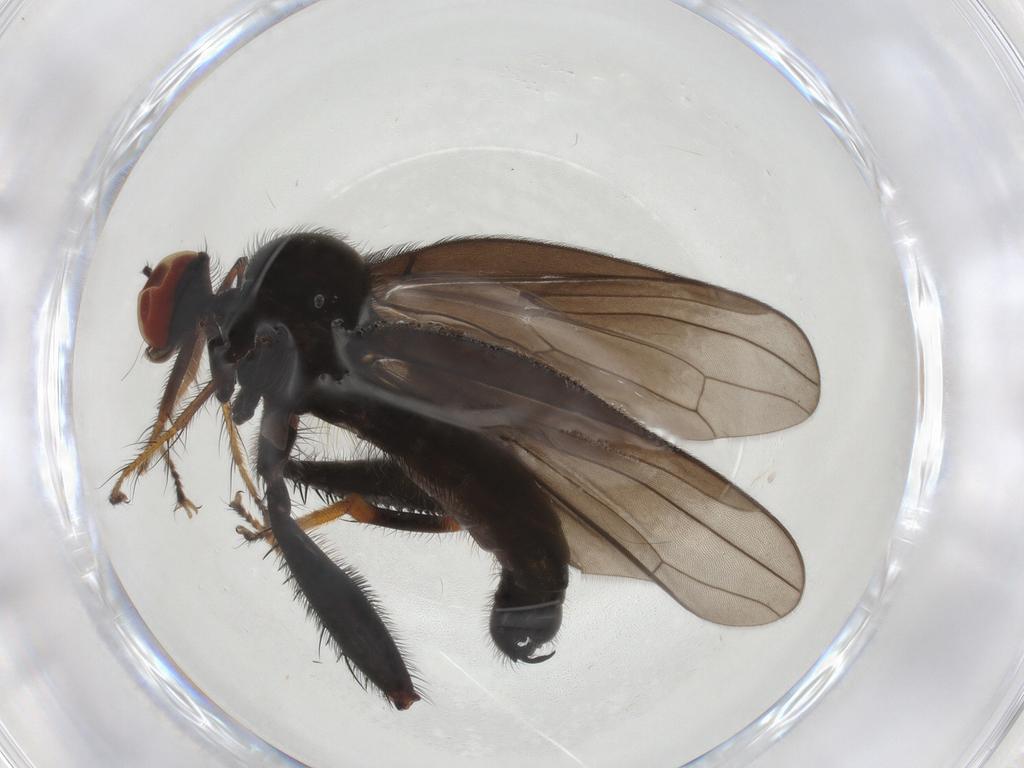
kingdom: Animalia
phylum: Arthropoda
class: Insecta
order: Diptera
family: Hybotidae
